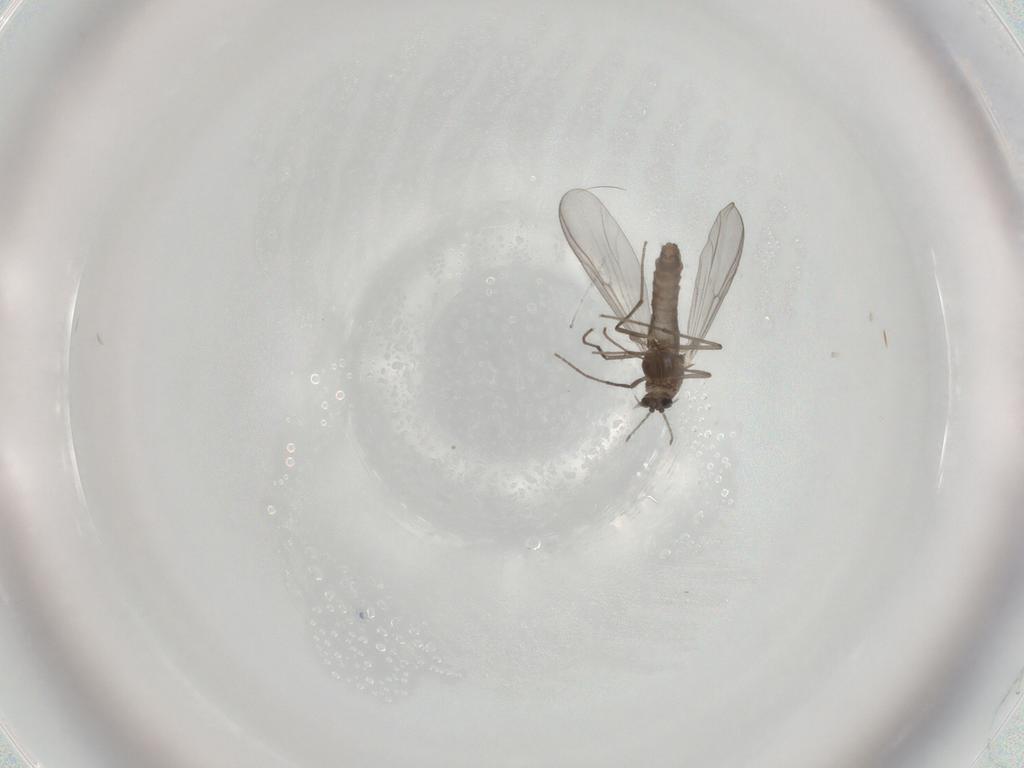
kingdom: Animalia
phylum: Arthropoda
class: Insecta
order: Diptera
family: Chironomidae
